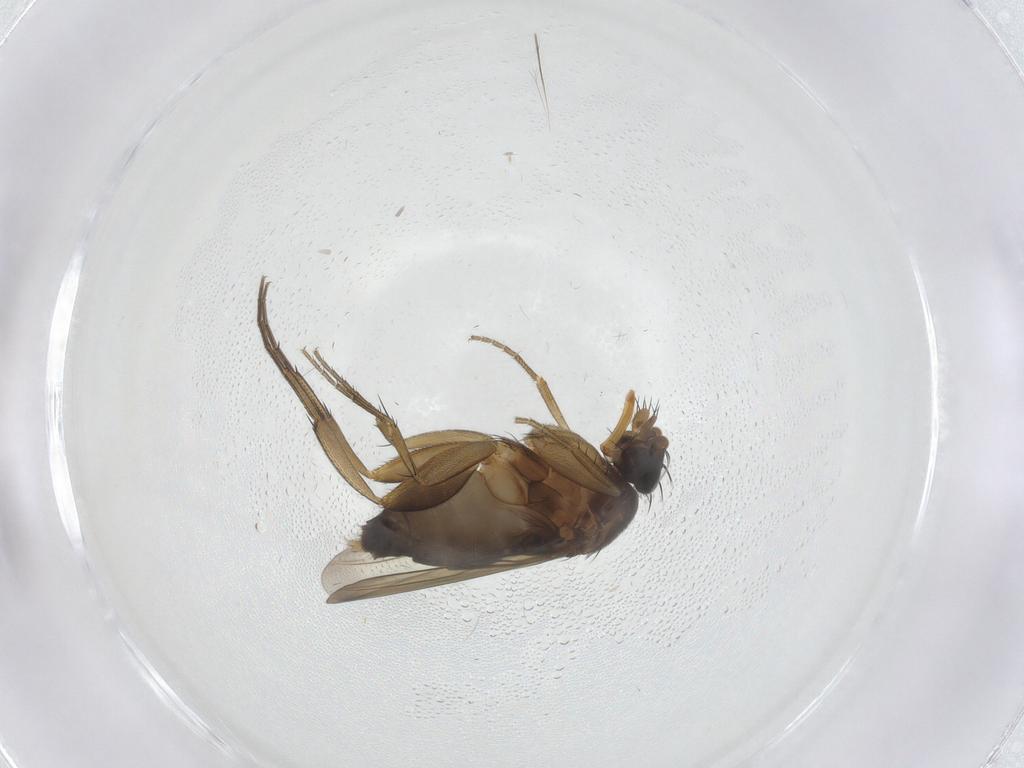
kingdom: Animalia
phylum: Arthropoda
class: Insecta
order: Diptera
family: Phoridae
